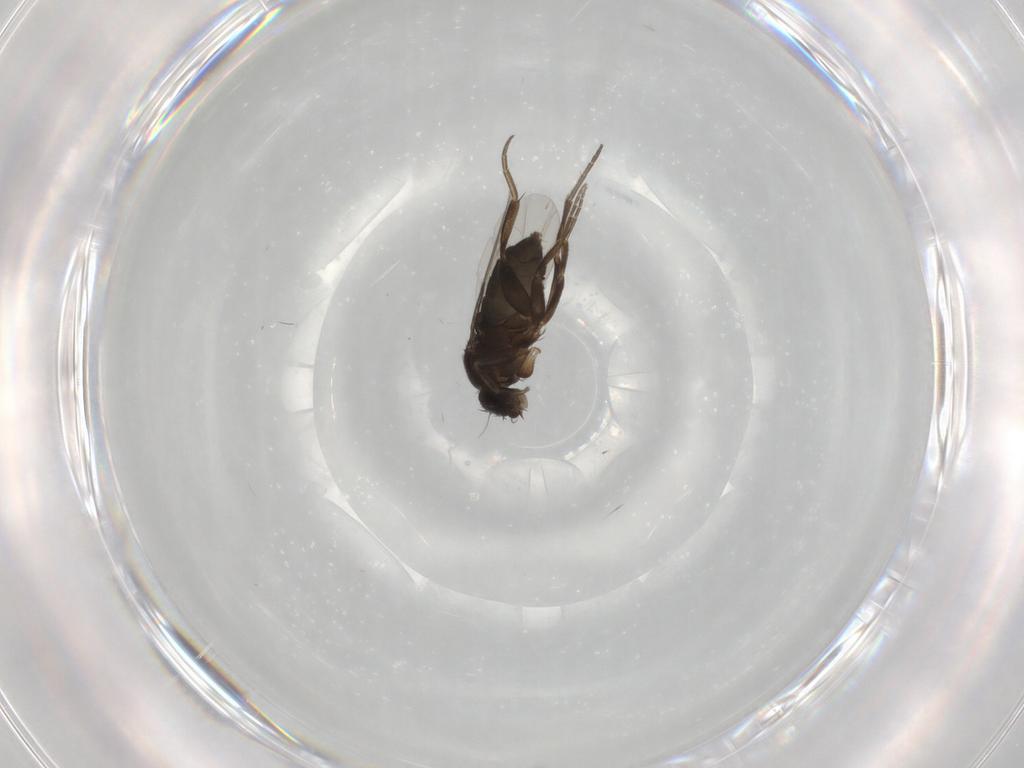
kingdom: Animalia
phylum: Arthropoda
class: Insecta
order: Diptera
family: Phoridae
